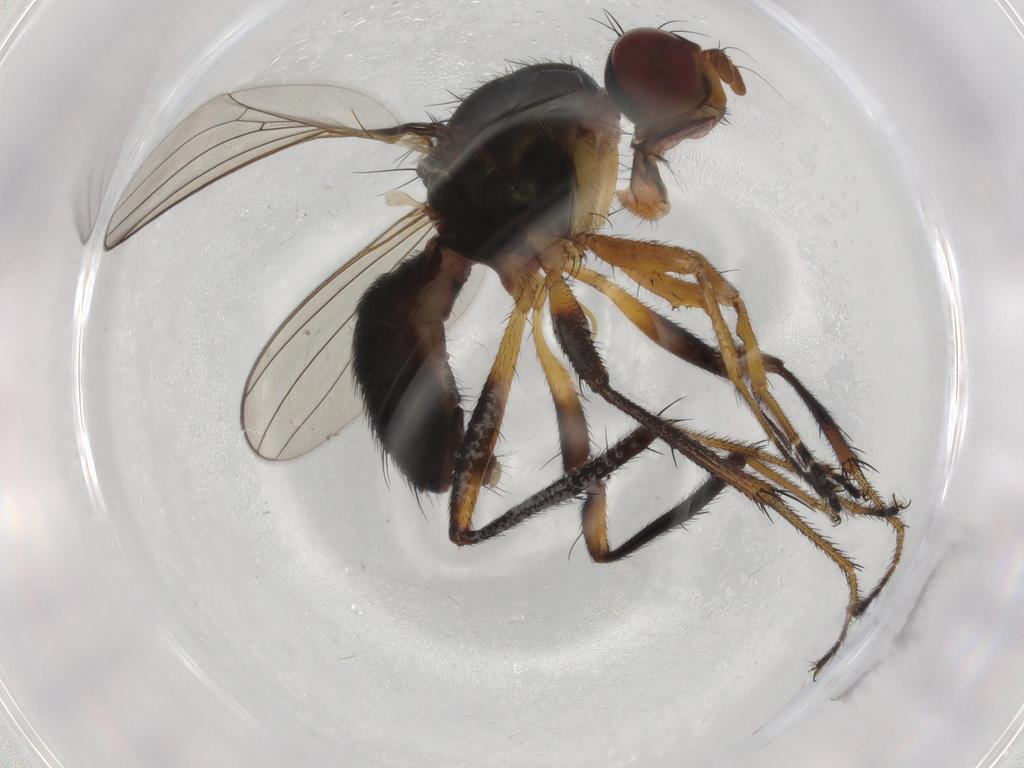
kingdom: Animalia
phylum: Arthropoda
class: Insecta
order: Diptera
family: Sepsidae
